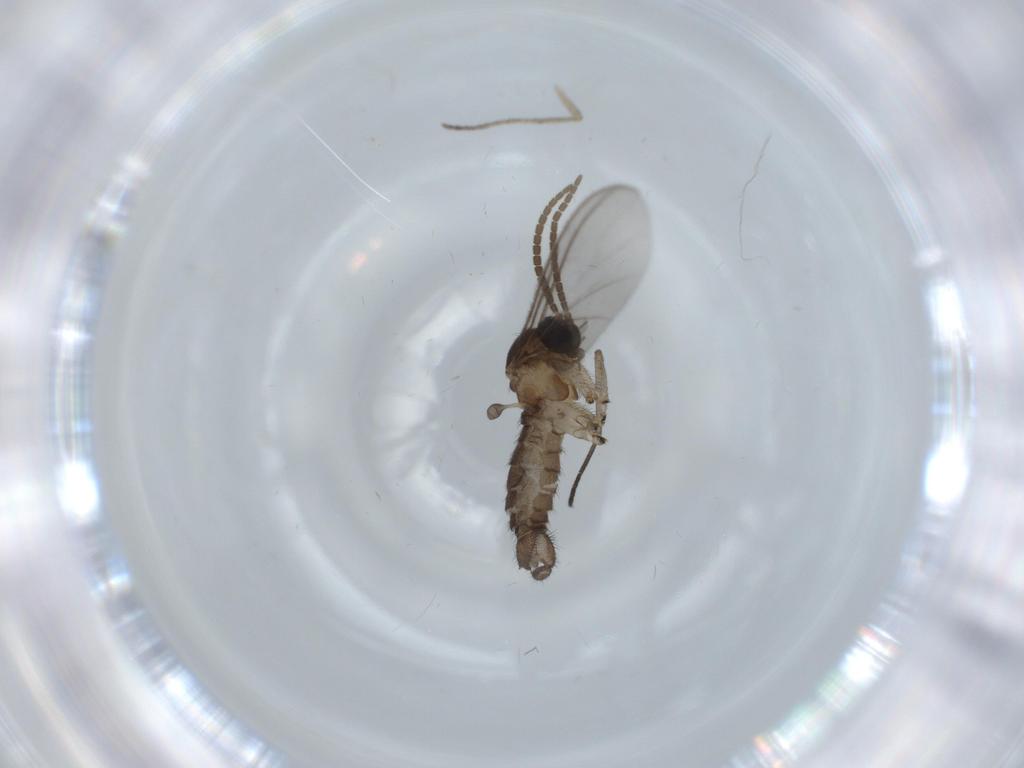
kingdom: Animalia
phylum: Arthropoda
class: Insecta
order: Diptera
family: Sciaridae
